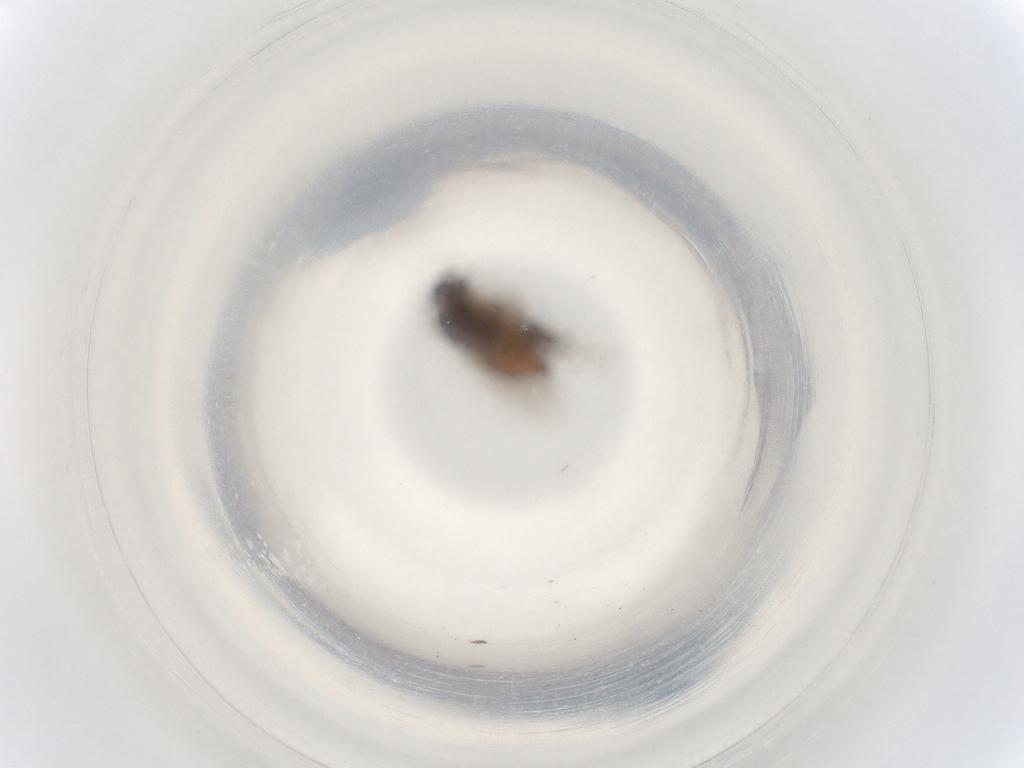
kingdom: Animalia
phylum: Arthropoda
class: Insecta
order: Diptera
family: Sphaeroceridae
